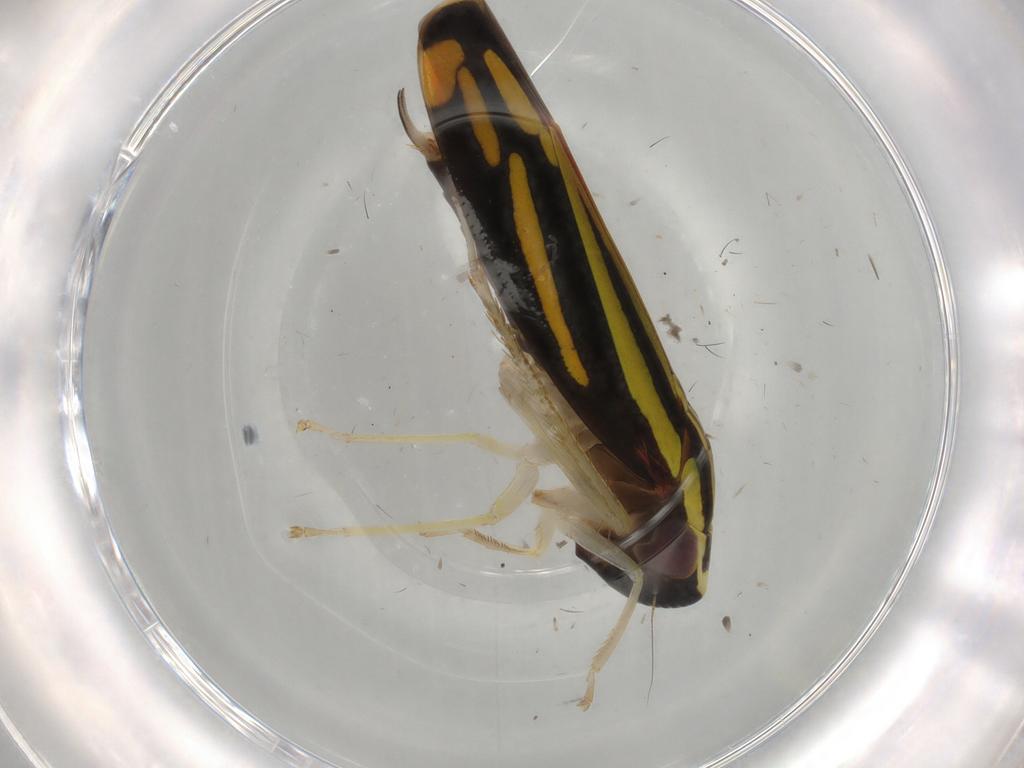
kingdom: Animalia
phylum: Arthropoda
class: Insecta
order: Hemiptera
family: Cicadellidae
